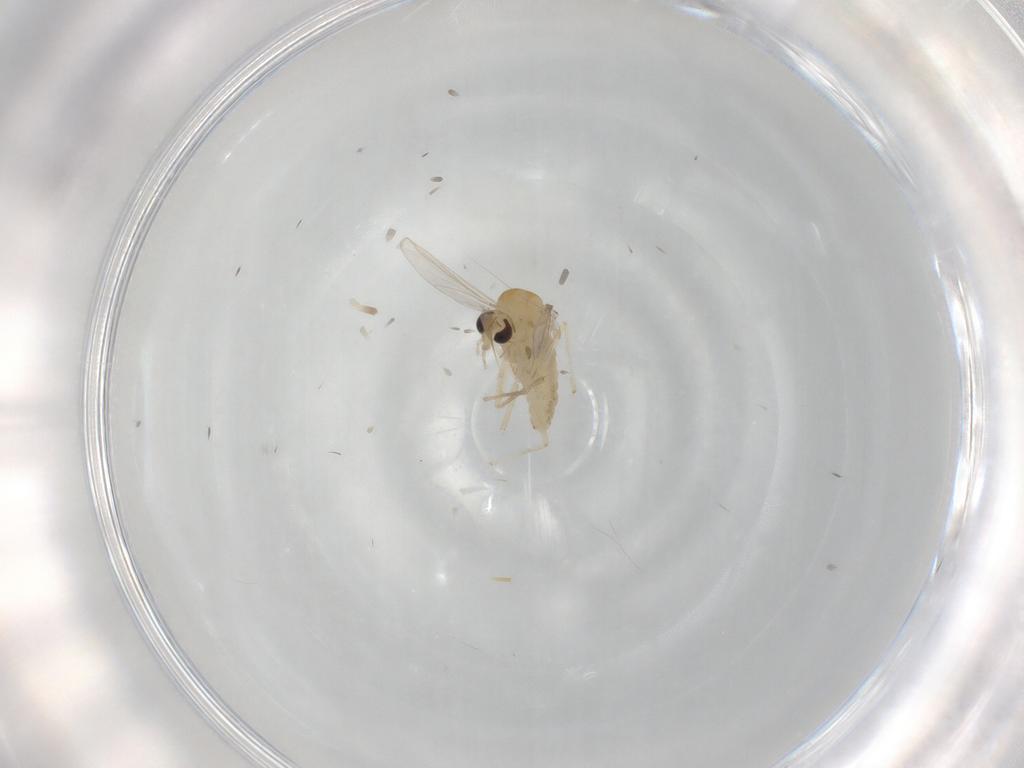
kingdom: Animalia
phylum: Arthropoda
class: Insecta
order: Diptera
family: Chironomidae
